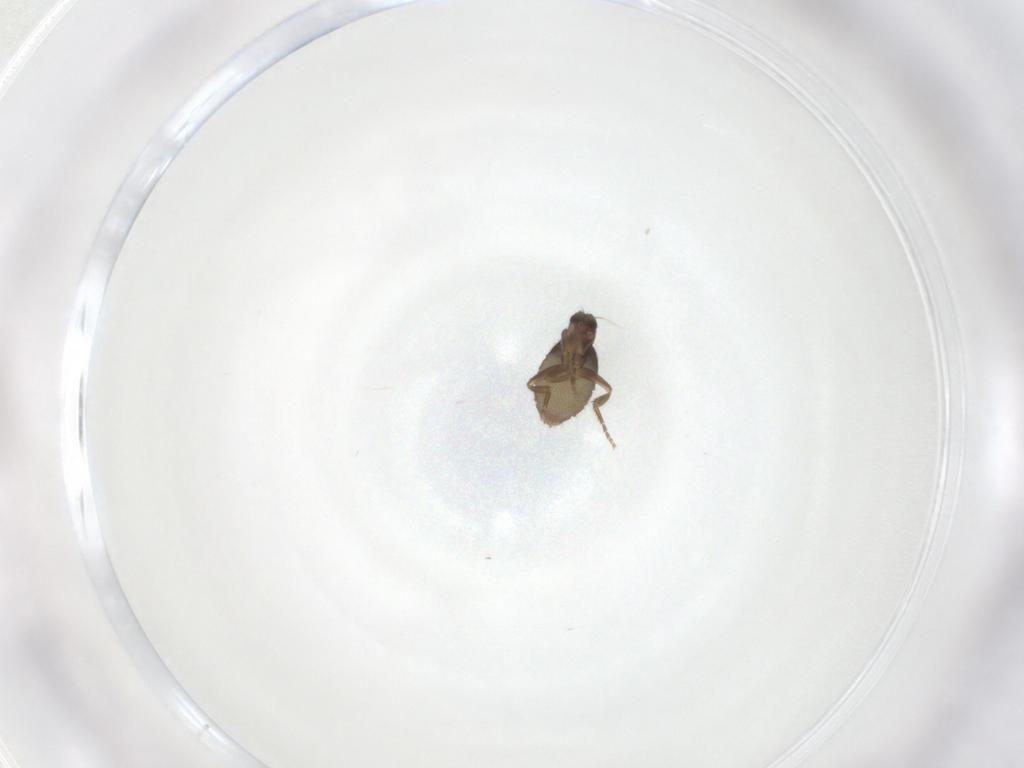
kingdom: Animalia
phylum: Arthropoda
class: Insecta
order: Diptera
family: Phoridae
